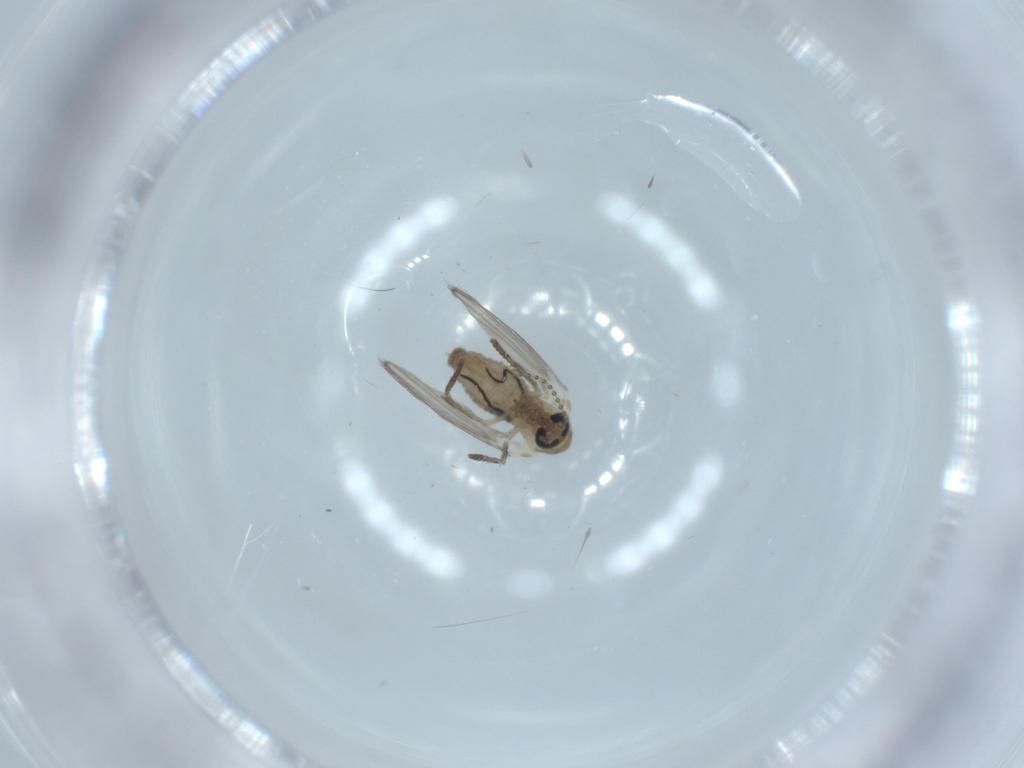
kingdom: Animalia
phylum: Arthropoda
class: Insecta
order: Diptera
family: Psychodidae
